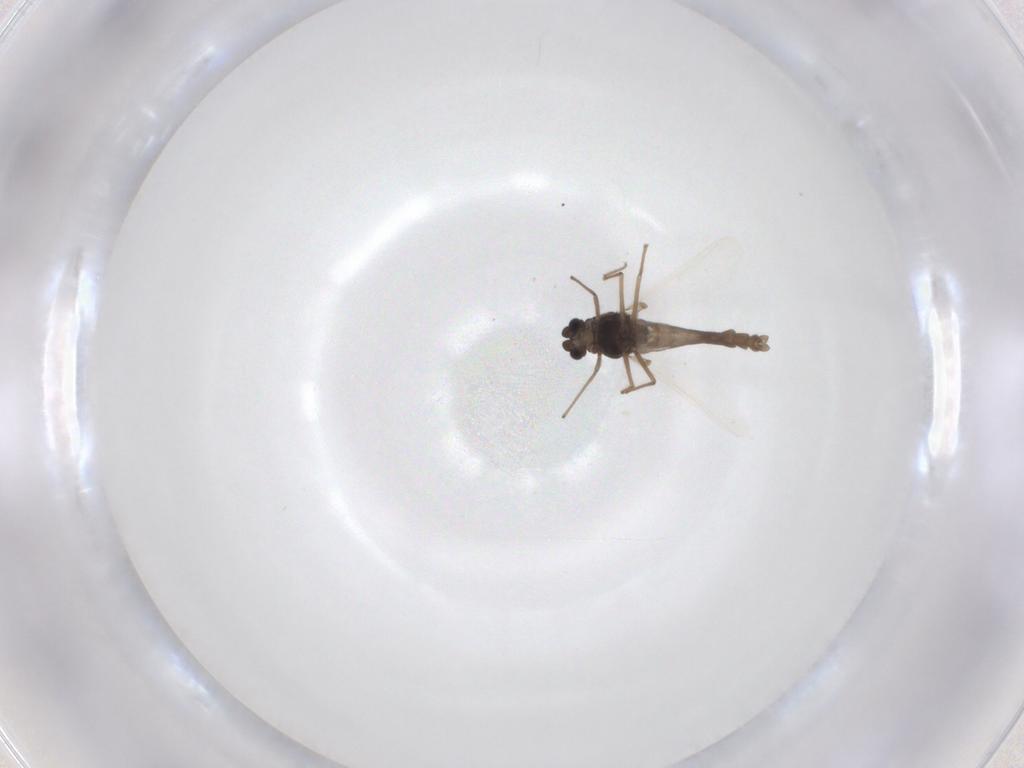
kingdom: Animalia
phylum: Arthropoda
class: Insecta
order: Diptera
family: Chironomidae
